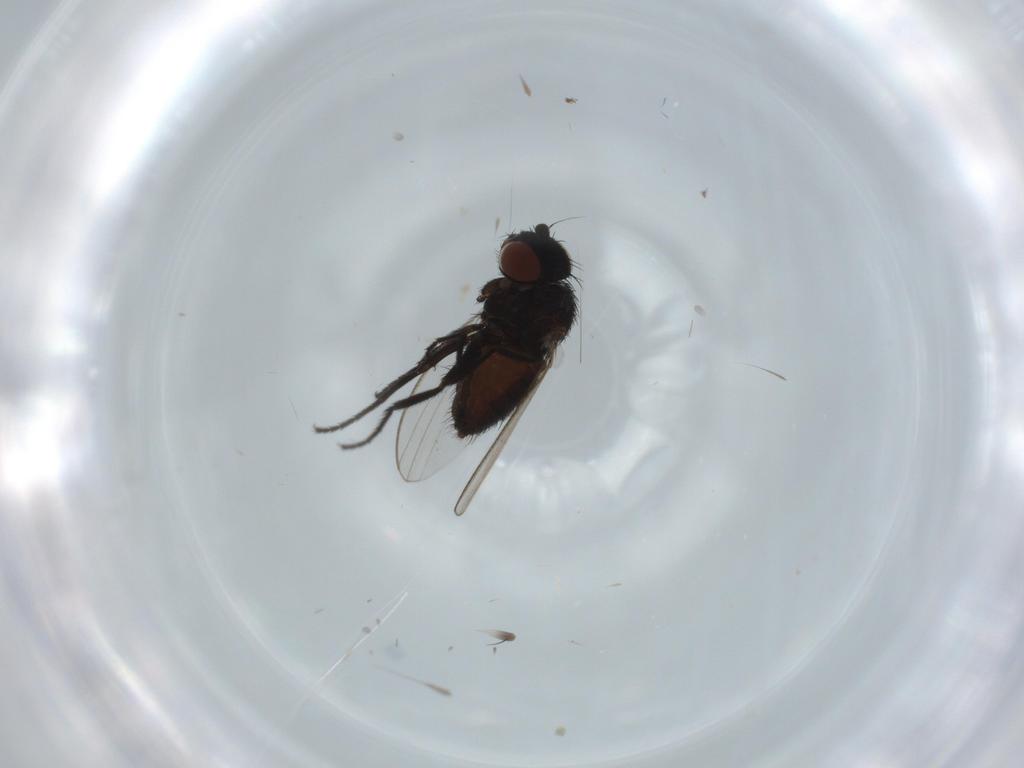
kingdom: Animalia
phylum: Arthropoda
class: Insecta
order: Diptera
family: Milichiidae
